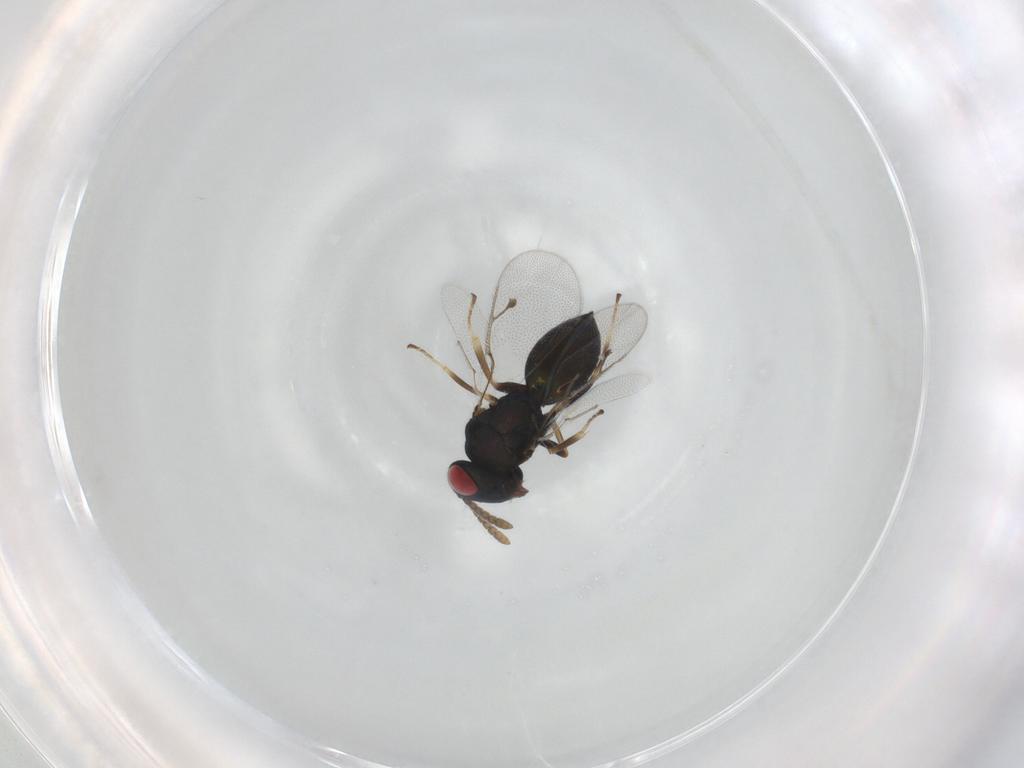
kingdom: Animalia
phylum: Arthropoda
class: Insecta
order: Hymenoptera
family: Pteromalidae
